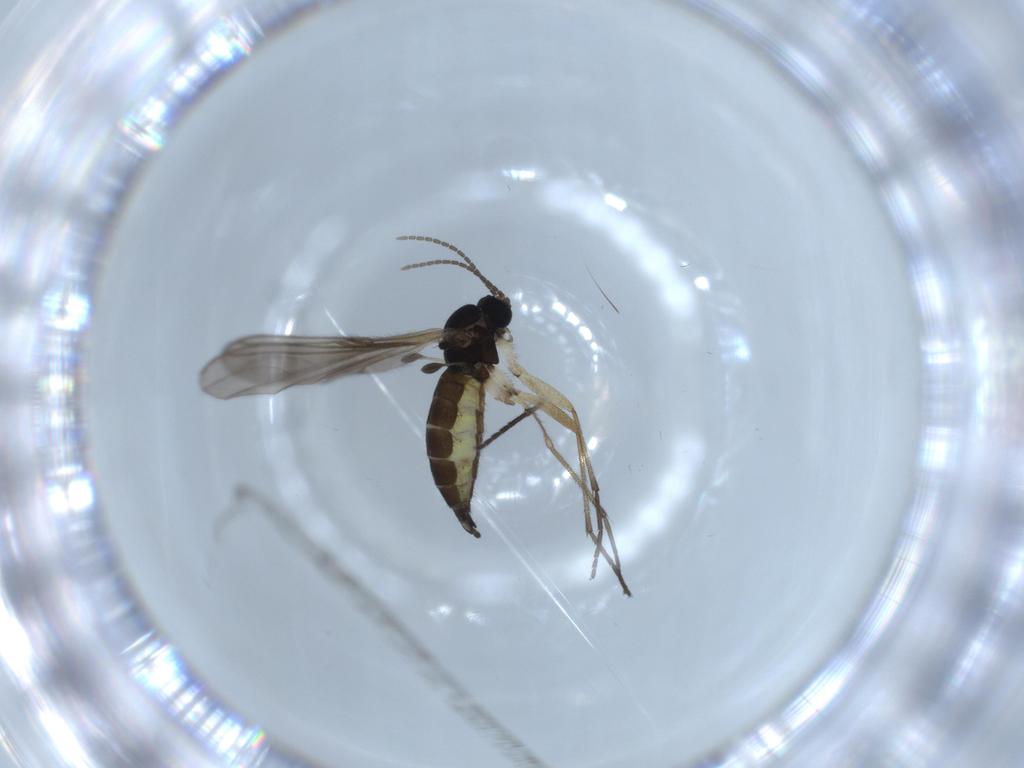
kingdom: Animalia
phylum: Arthropoda
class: Insecta
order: Diptera
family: Sciaridae
